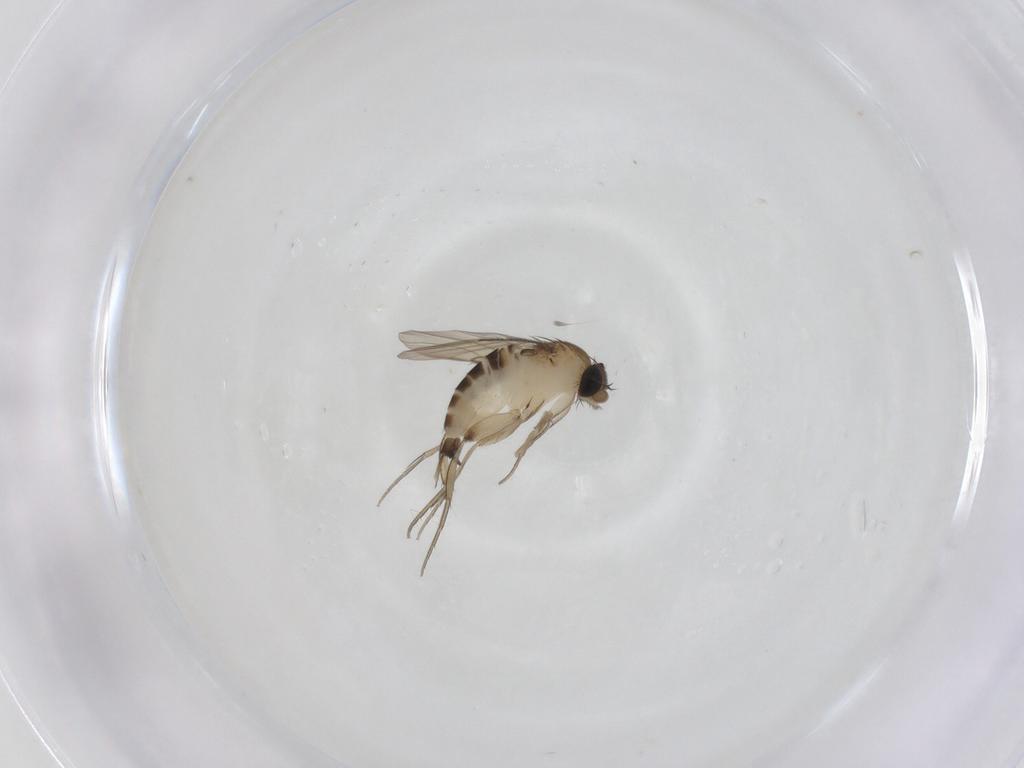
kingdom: Animalia
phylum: Arthropoda
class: Insecta
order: Diptera
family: Phoridae
